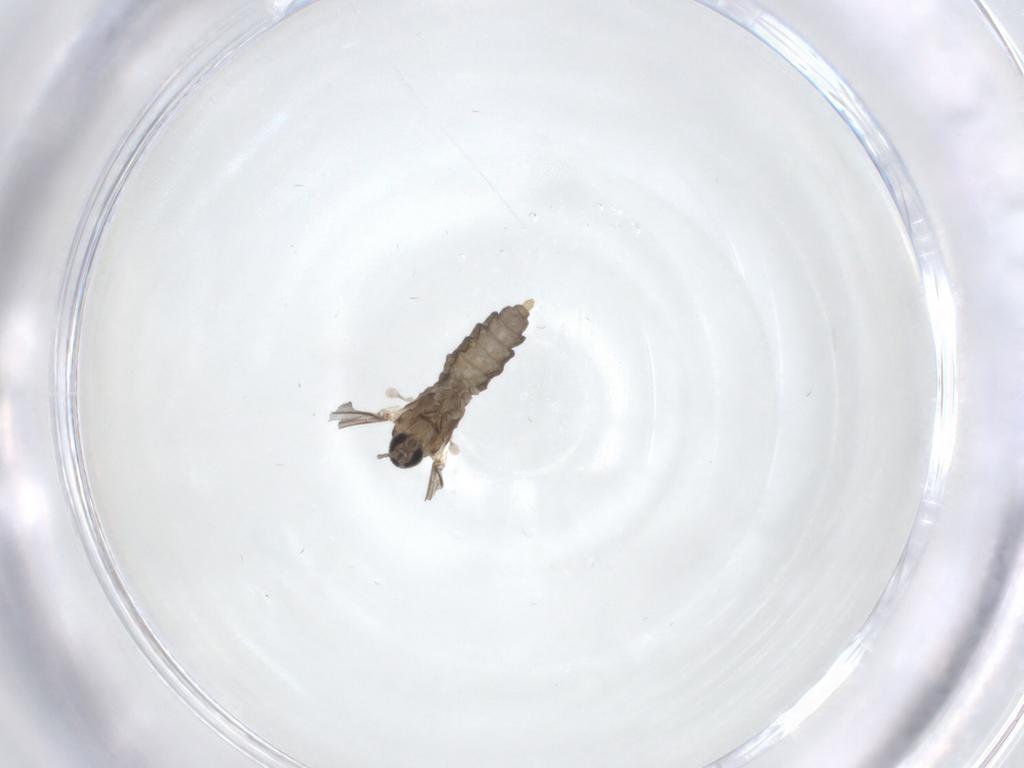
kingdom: Animalia
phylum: Arthropoda
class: Insecta
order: Diptera
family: Cecidomyiidae
